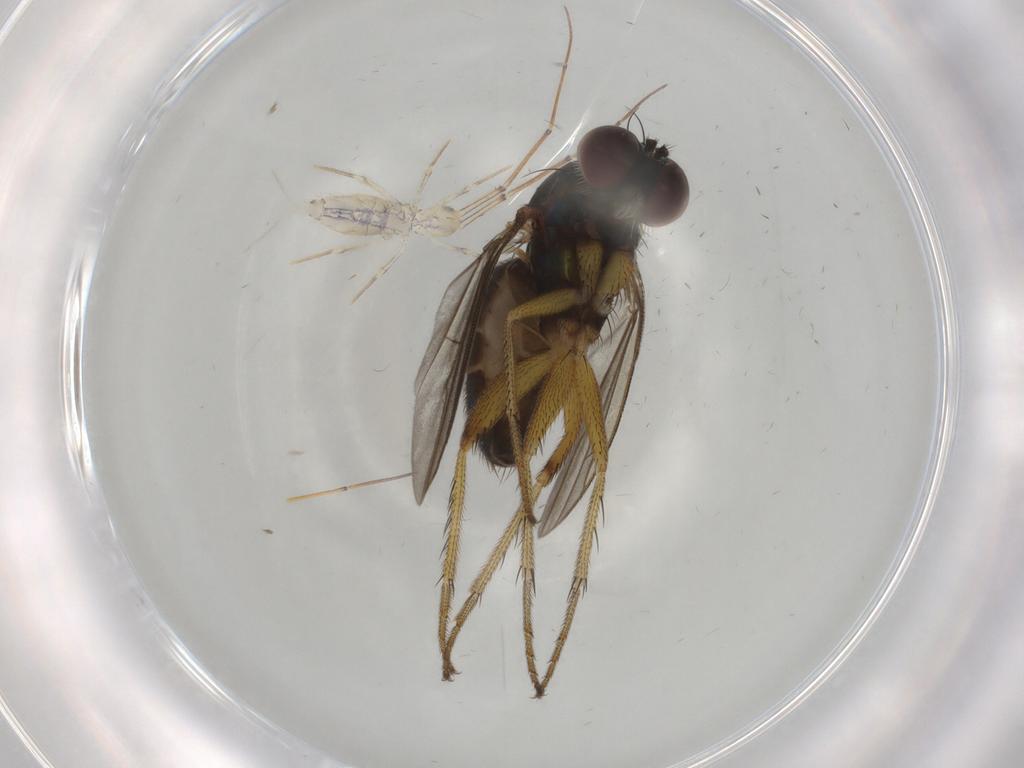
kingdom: Animalia
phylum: Arthropoda
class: Insecta
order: Diptera
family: Dolichopodidae
